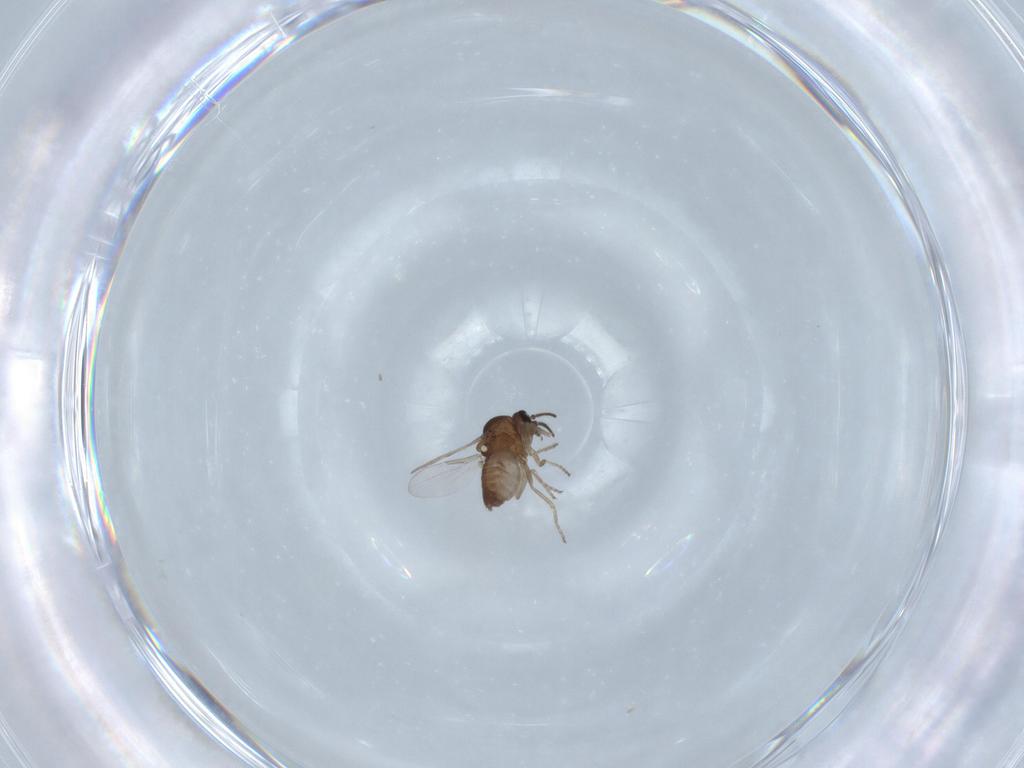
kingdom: Animalia
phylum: Arthropoda
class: Insecta
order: Diptera
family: Ceratopogonidae
